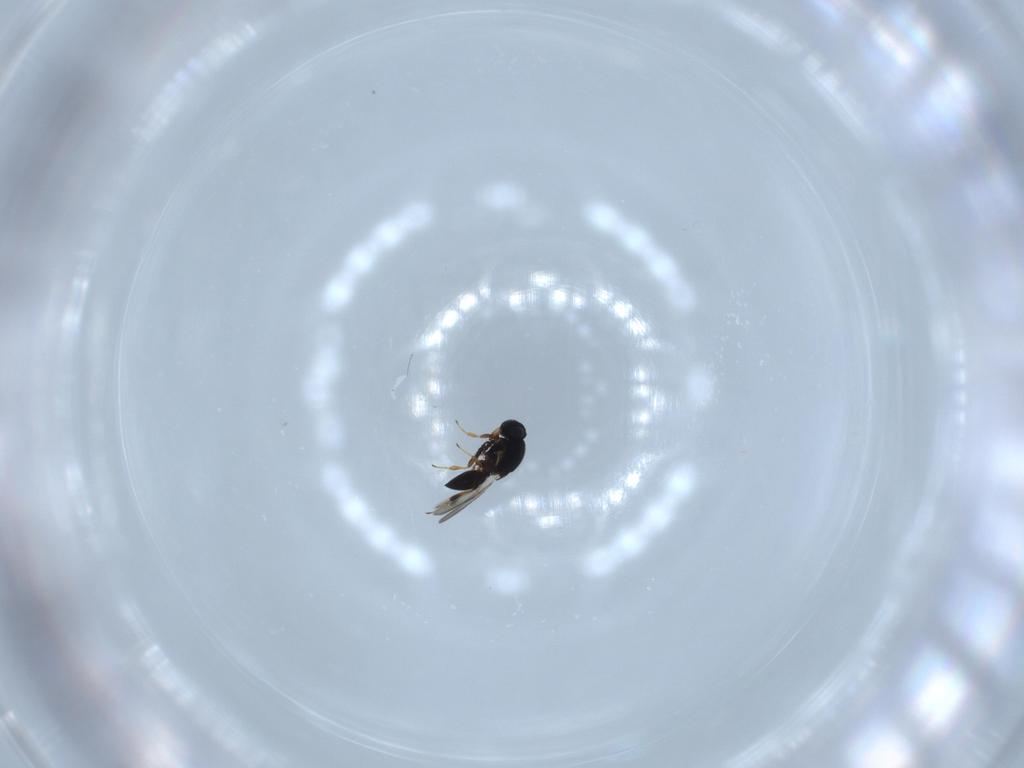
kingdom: Animalia
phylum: Arthropoda
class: Insecta
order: Hymenoptera
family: Platygastridae
